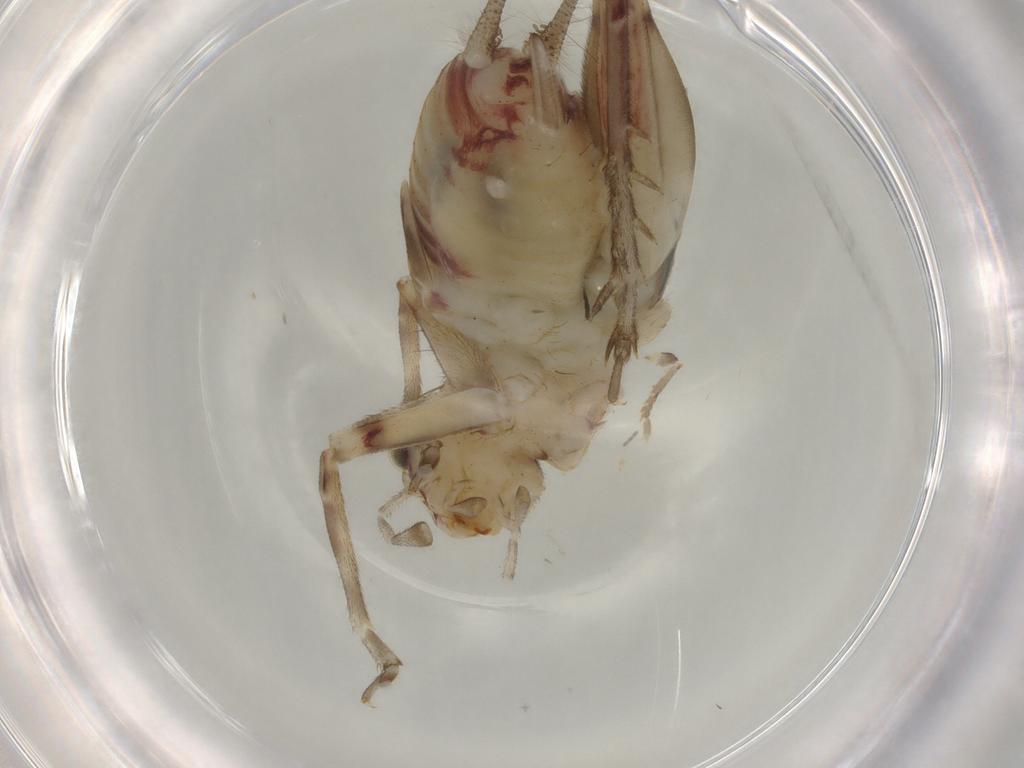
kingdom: Animalia
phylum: Arthropoda
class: Insecta
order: Orthoptera
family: Trigonidiidae
